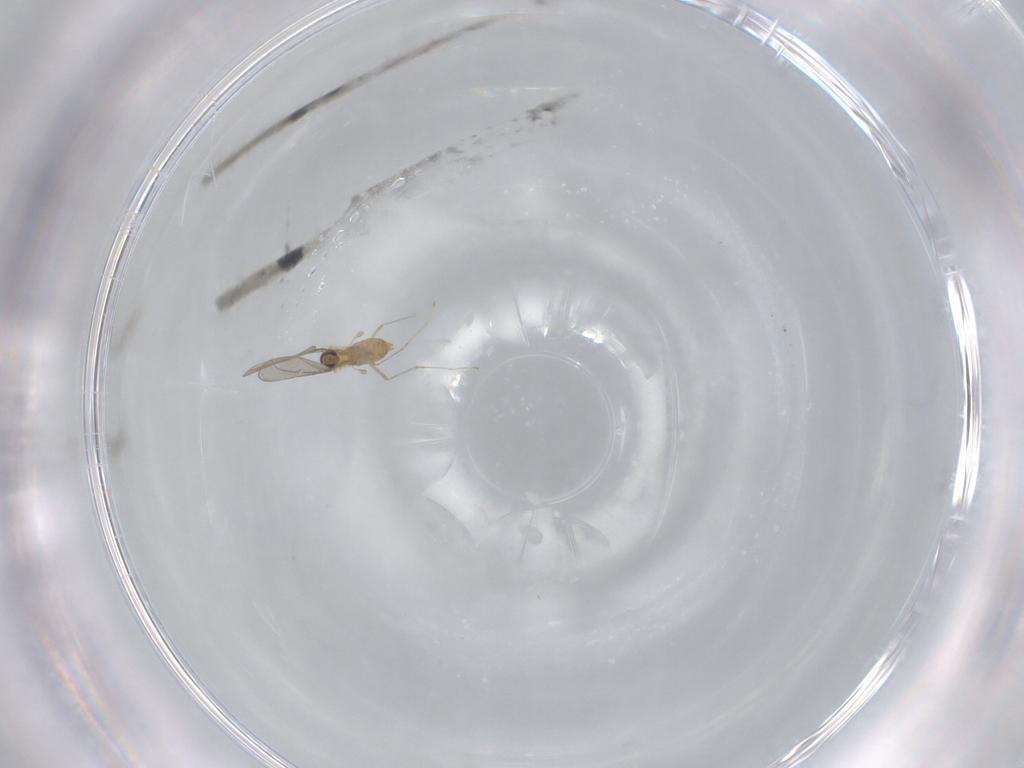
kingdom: Animalia
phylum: Arthropoda
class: Insecta
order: Diptera
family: Cecidomyiidae
